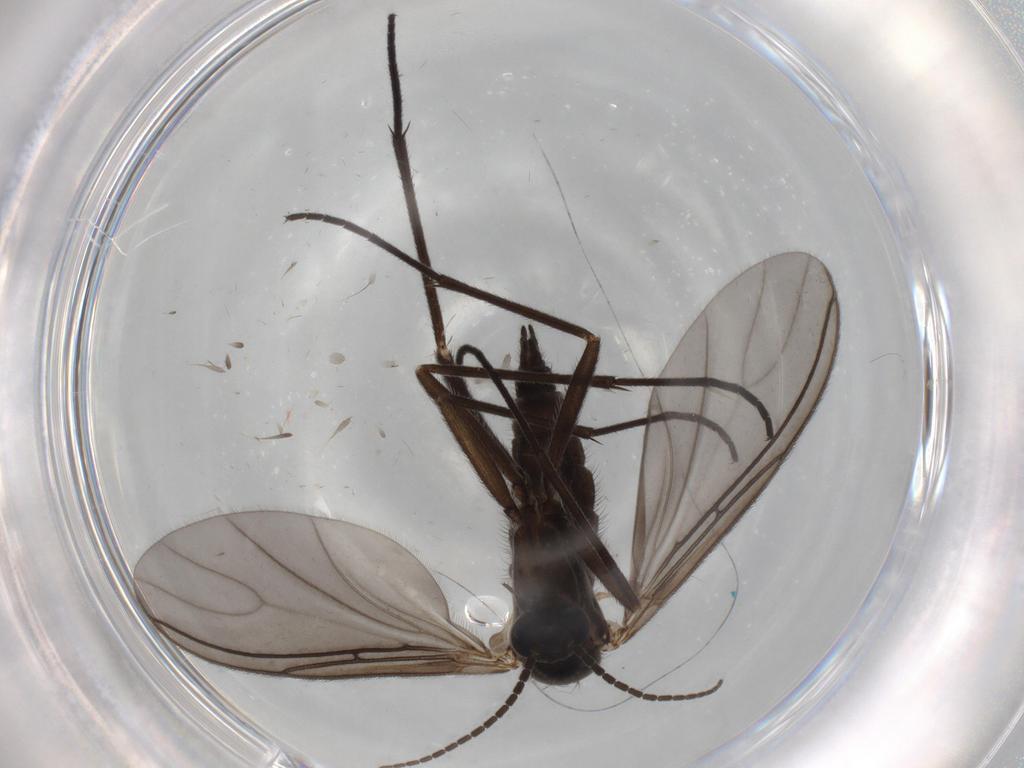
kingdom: Animalia
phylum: Arthropoda
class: Insecta
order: Diptera
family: Sciaridae
